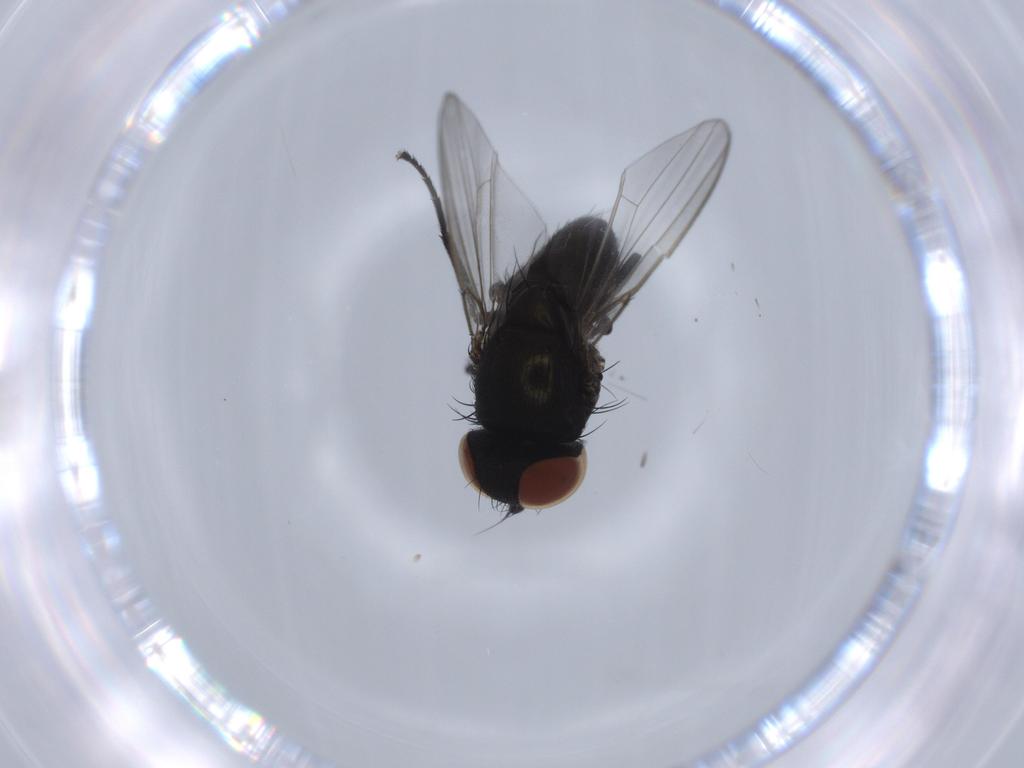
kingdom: Animalia
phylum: Arthropoda
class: Insecta
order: Diptera
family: Milichiidae
